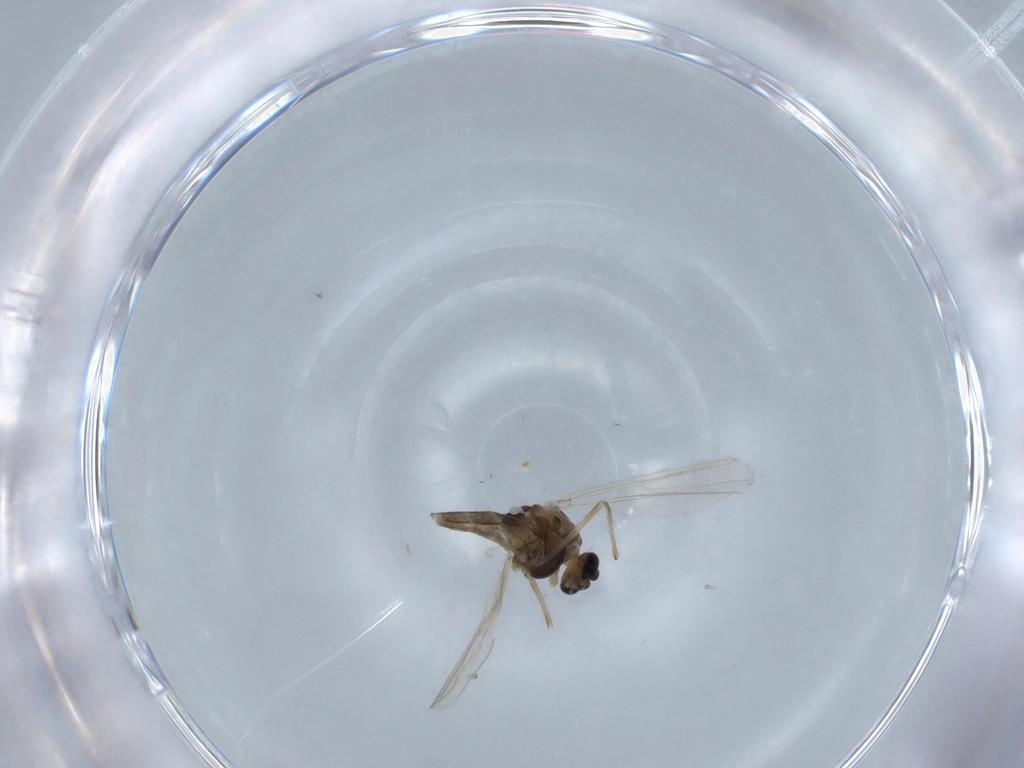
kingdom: Animalia
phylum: Arthropoda
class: Insecta
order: Diptera
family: Chironomidae
